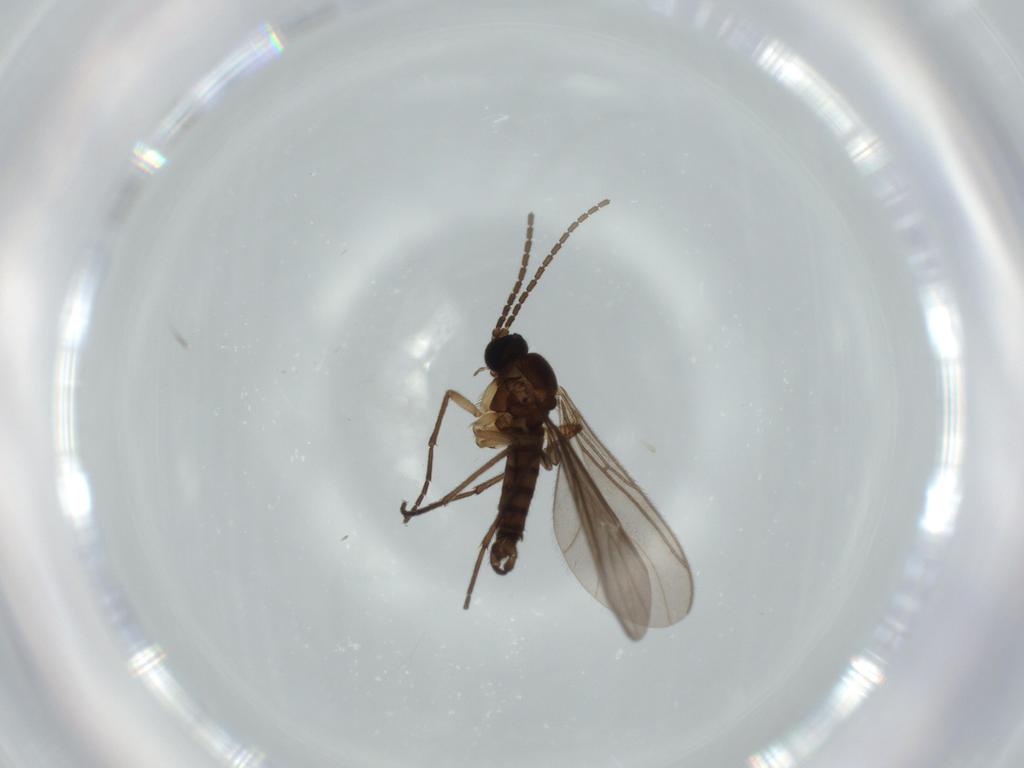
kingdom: Animalia
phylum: Arthropoda
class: Insecta
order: Diptera
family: Sciaridae
